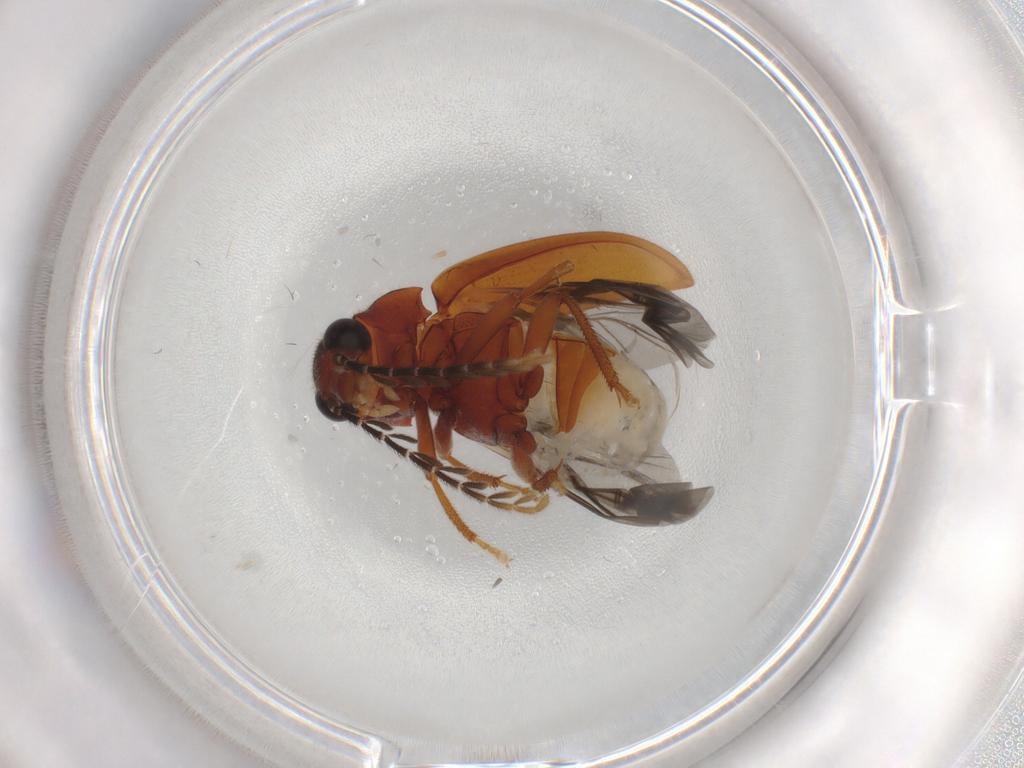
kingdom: Animalia
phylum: Arthropoda
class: Insecta
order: Coleoptera
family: Ptilodactylidae
